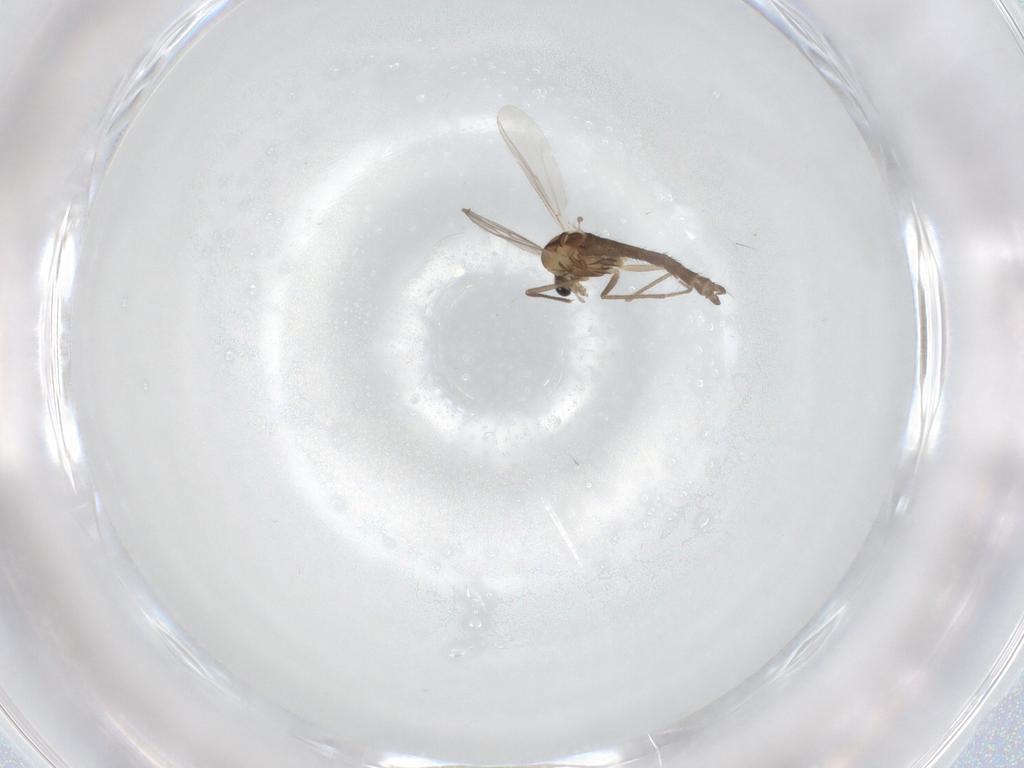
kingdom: Animalia
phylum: Arthropoda
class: Insecta
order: Diptera
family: Chironomidae
